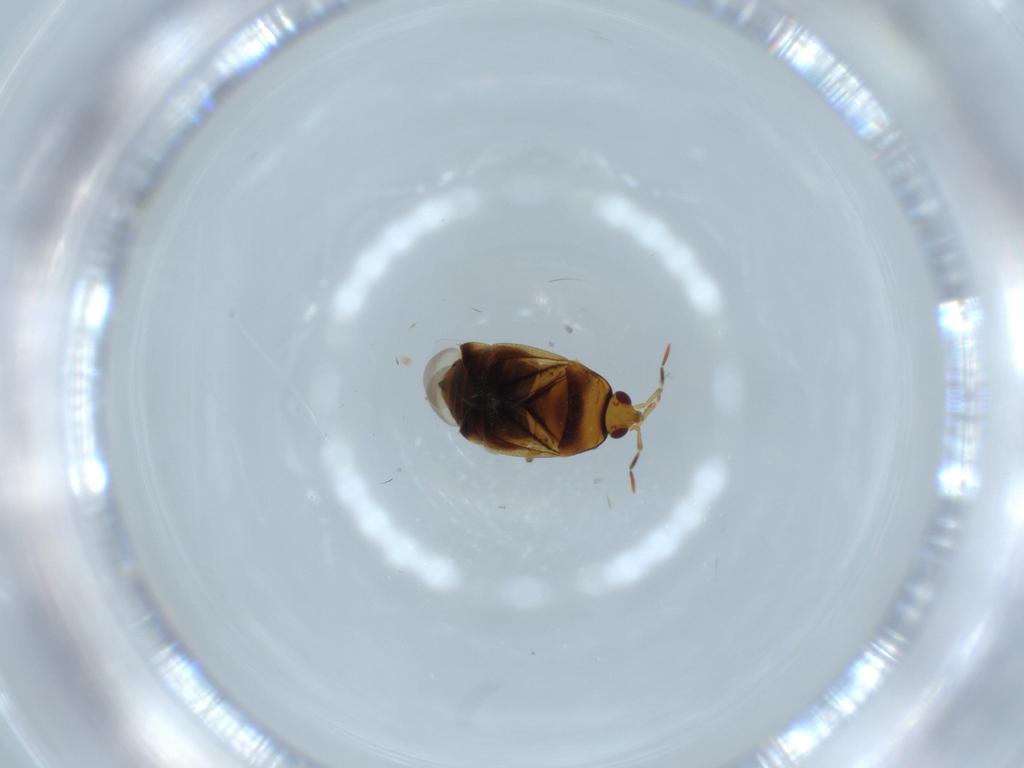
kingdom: Animalia
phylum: Arthropoda
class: Insecta
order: Hemiptera
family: Anthocoridae
